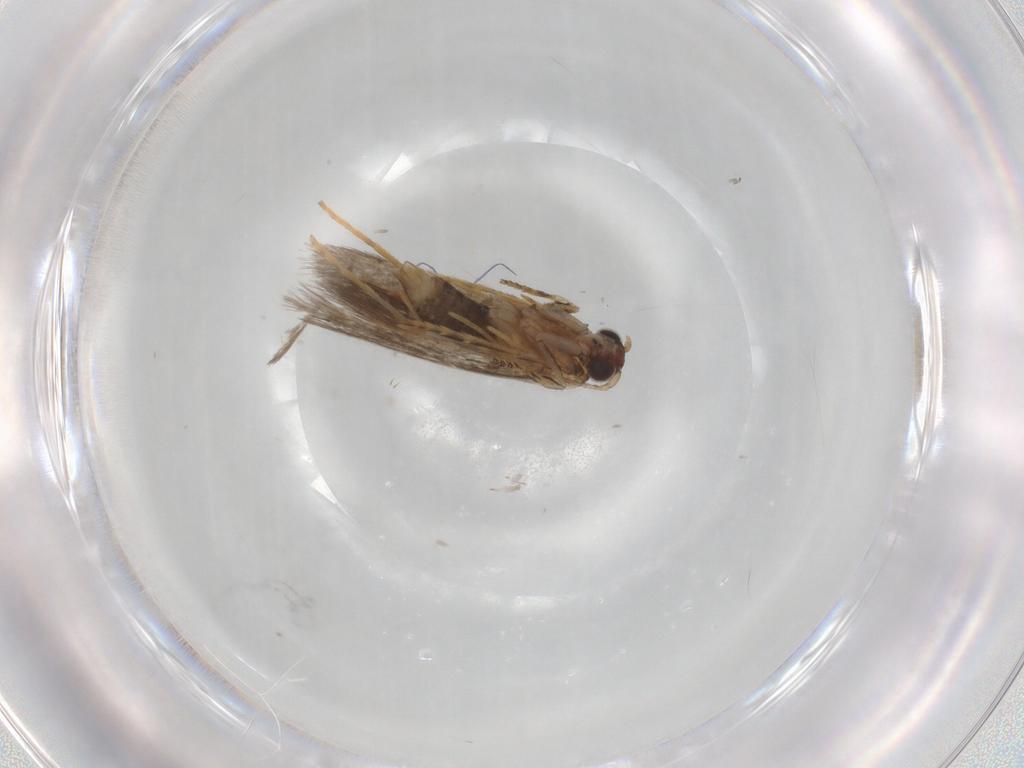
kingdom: Animalia
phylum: Arthropoda
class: Insecta
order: Lepidoptera
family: Tineidae
